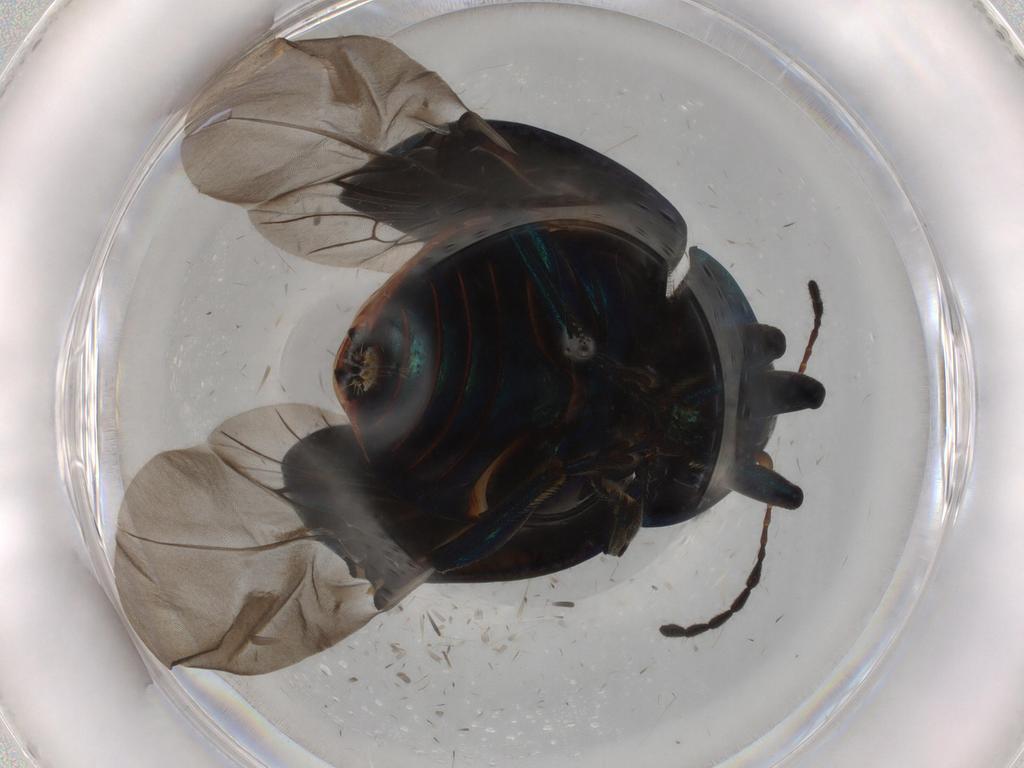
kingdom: Animalia
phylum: Arthropoda
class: Insecta
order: Coleoptera
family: Chrysomelidae
